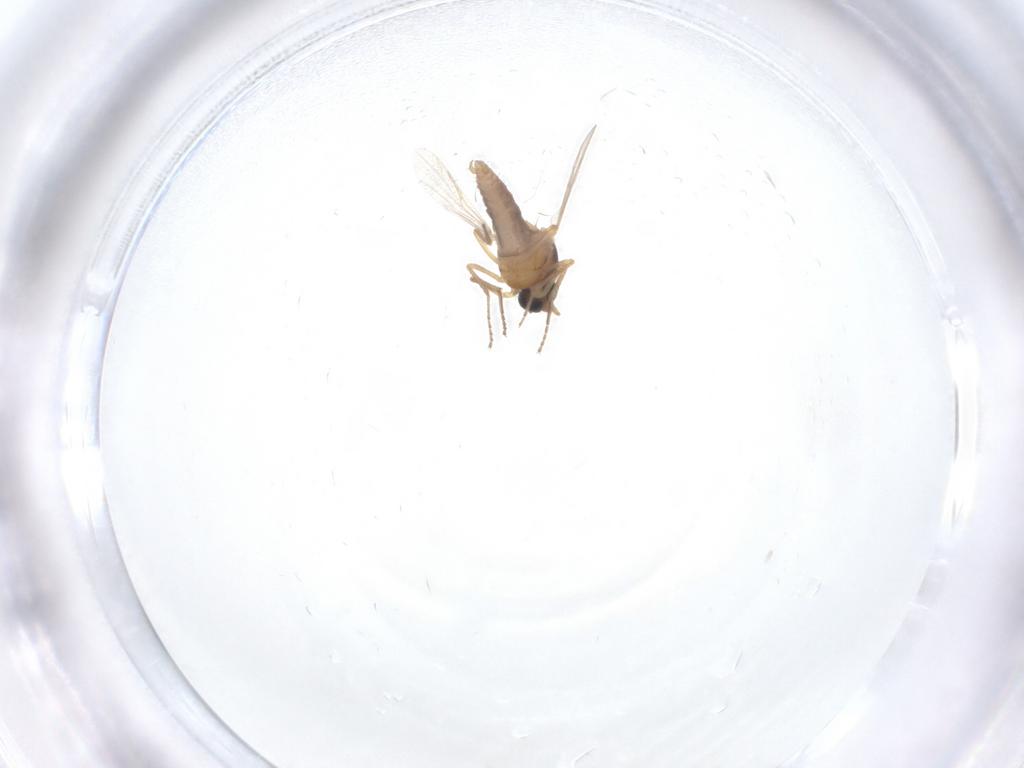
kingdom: Animalia
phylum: Arthropoda
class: Insecta
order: Diptera
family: Ceratopogonidae
